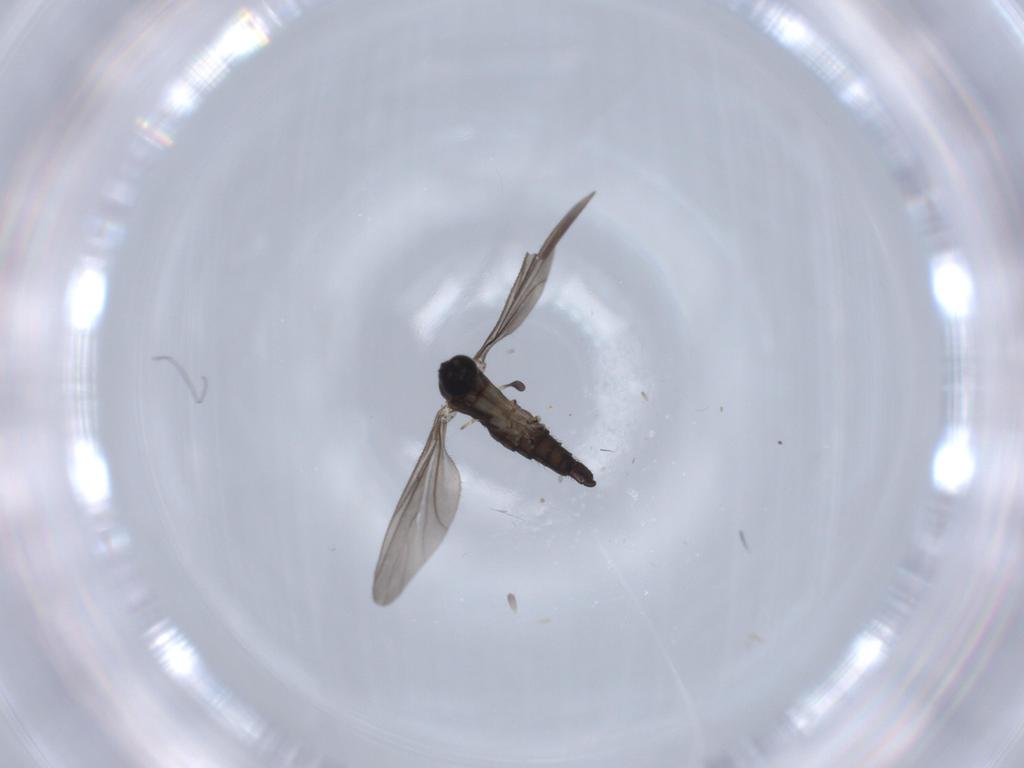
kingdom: Animalia
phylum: Arthropoda
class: Insecta
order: Diptera
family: Sciaridae
